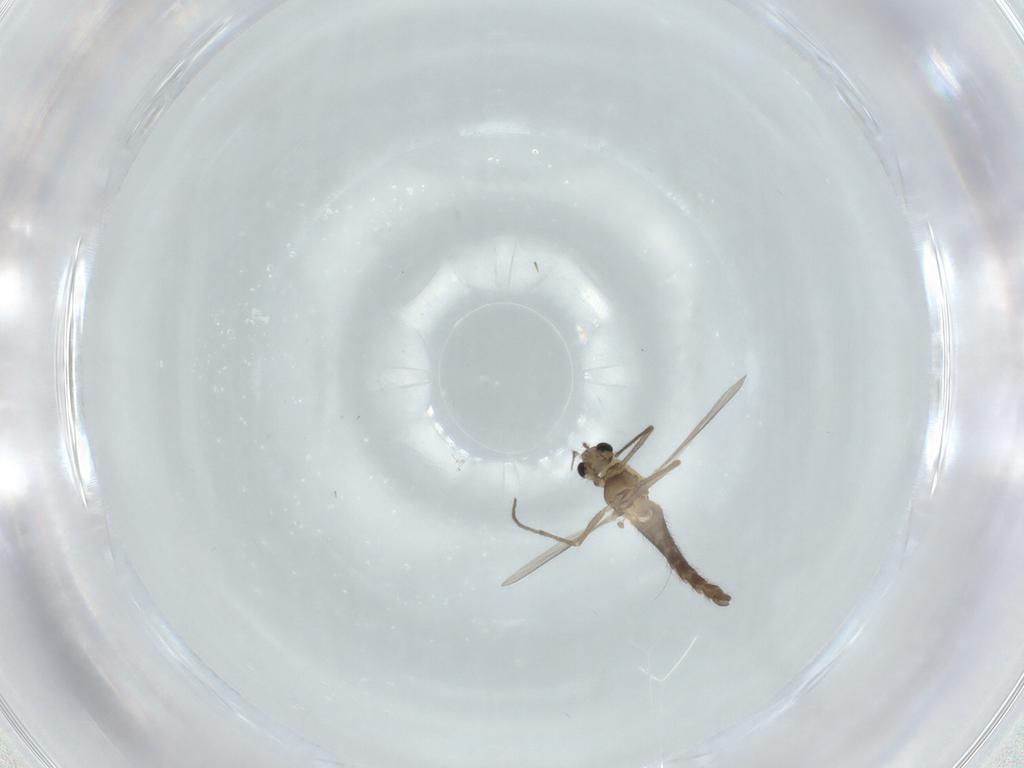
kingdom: Animalia
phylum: Arthropoda
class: Insecta
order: Diptera
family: Chironomidae
